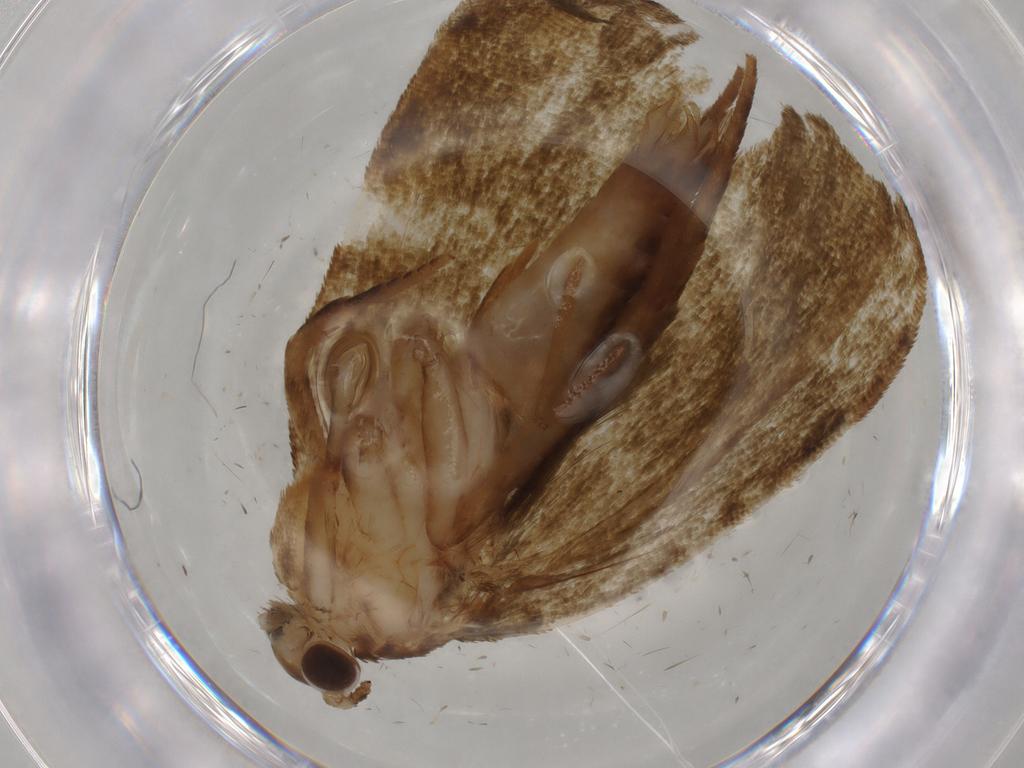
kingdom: Animalia
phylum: Arthropoda
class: Insecta
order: Lepidoptera
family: Geometridae
